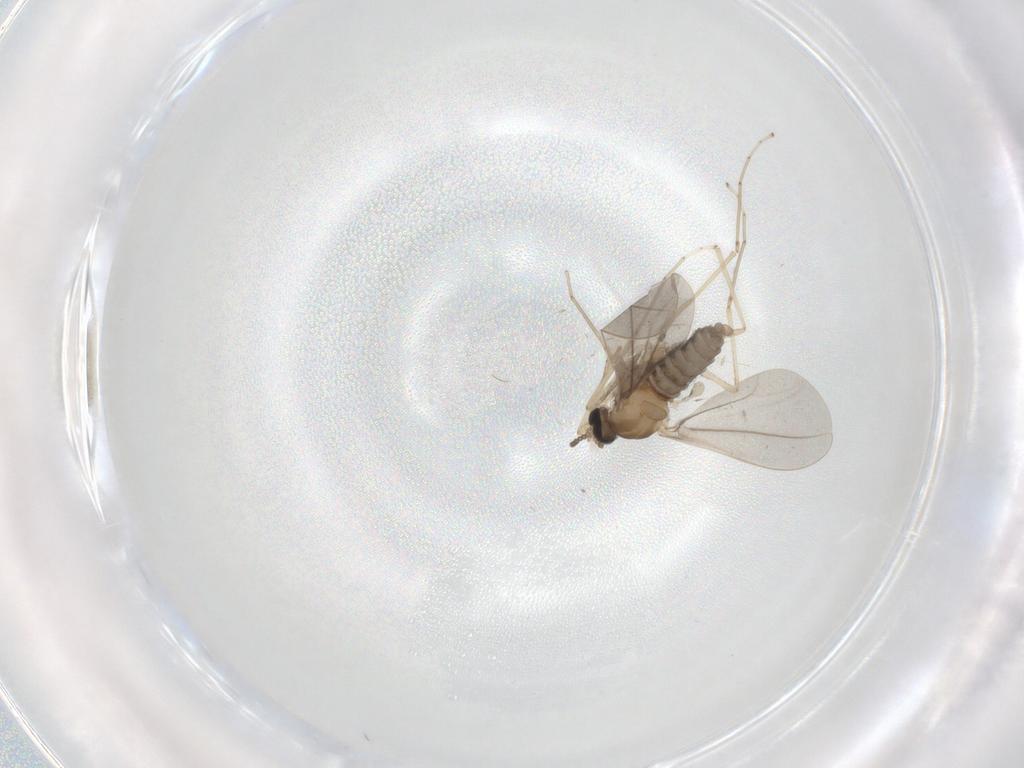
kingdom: Animalia
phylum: Arthropoda
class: Insecta
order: Diptera
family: Cecidomyiidae
